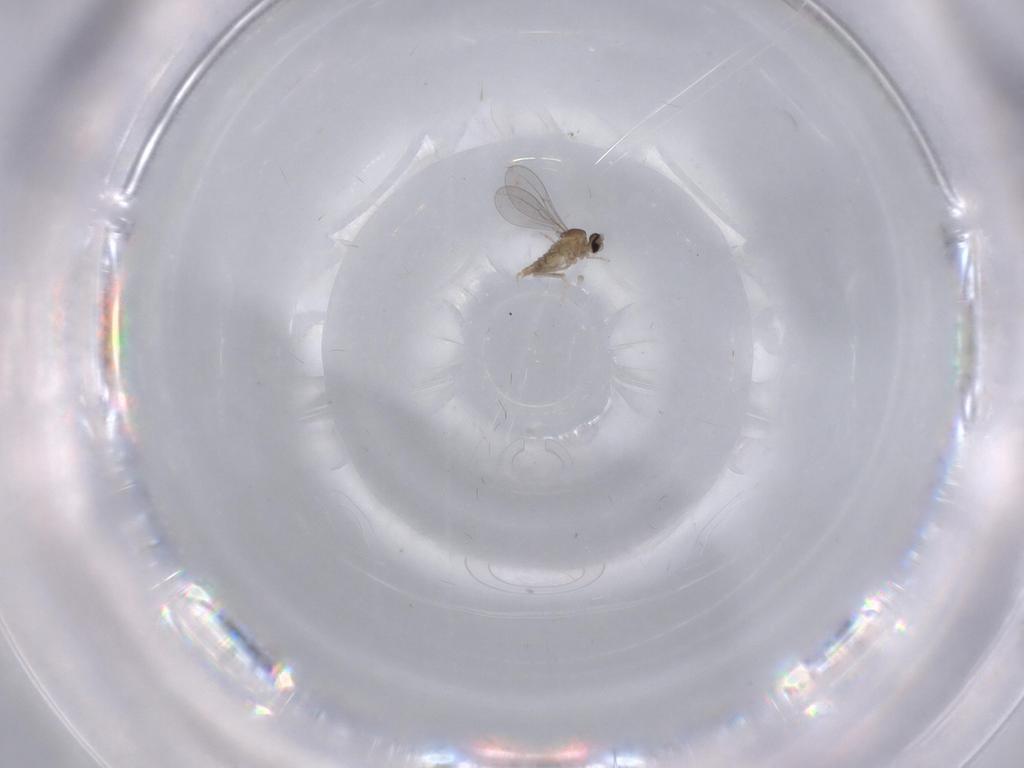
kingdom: Animalia
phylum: Arthropoda
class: Insecta
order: Diptera
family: Cecidomyiidae
